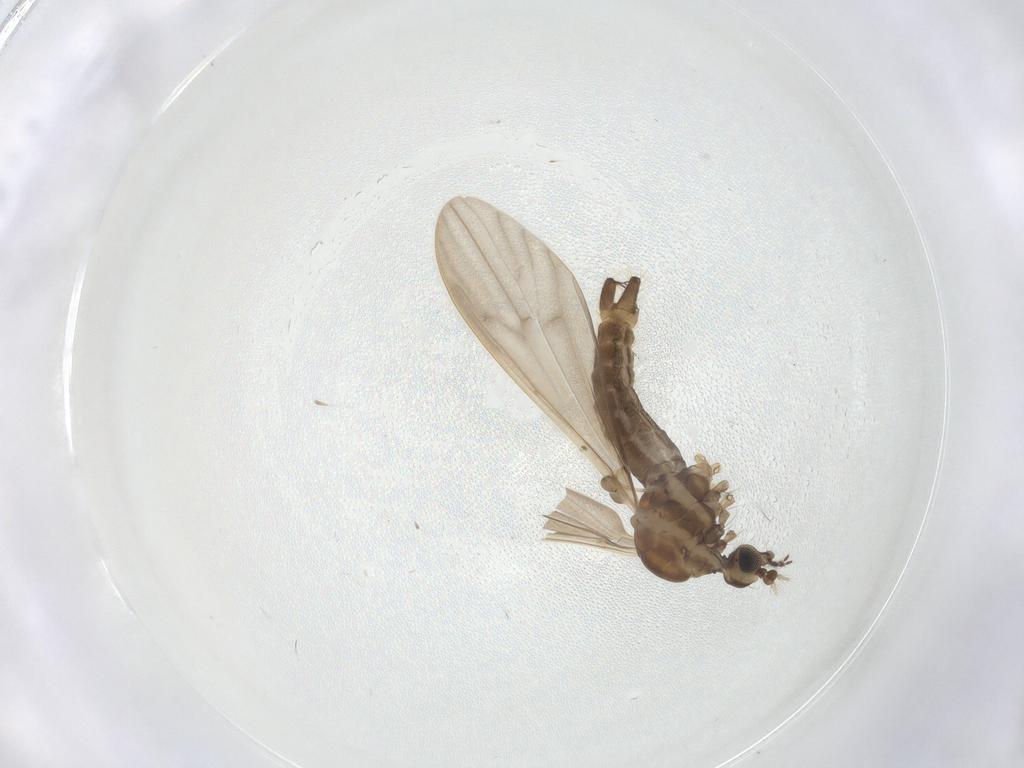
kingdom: Animalia
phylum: Arthropoda
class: Insecta
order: Diptera
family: Limoniidae
